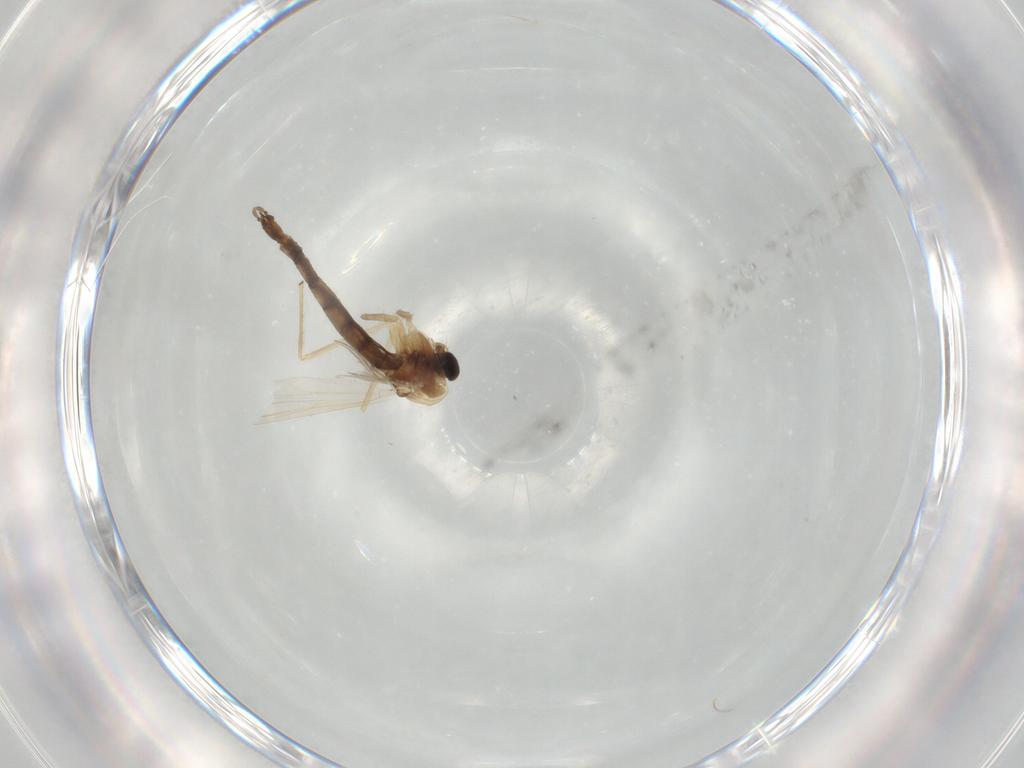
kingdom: Animalia
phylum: Arthropoda
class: Insecta
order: Diptera
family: Chironomidae
